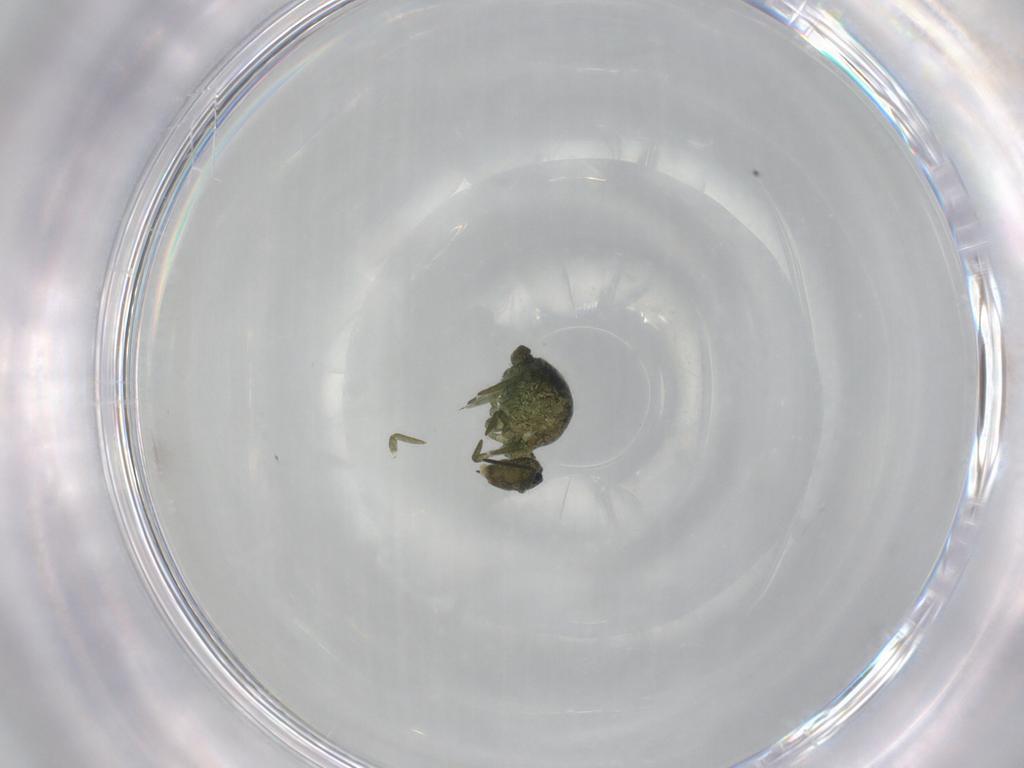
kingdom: Animalia
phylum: Arthropoda
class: Collembola
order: Symphypleona
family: Sminthuridae
